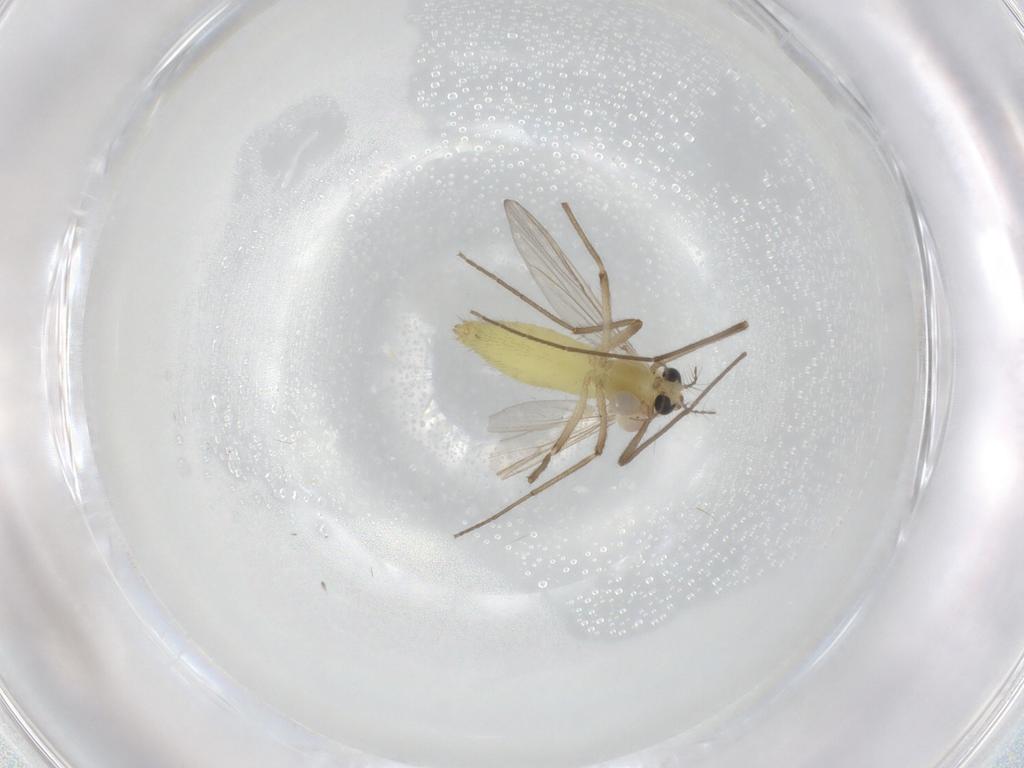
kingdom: Animalia
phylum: Arthropoda
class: Insecta
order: Diptera
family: Chironomidae
